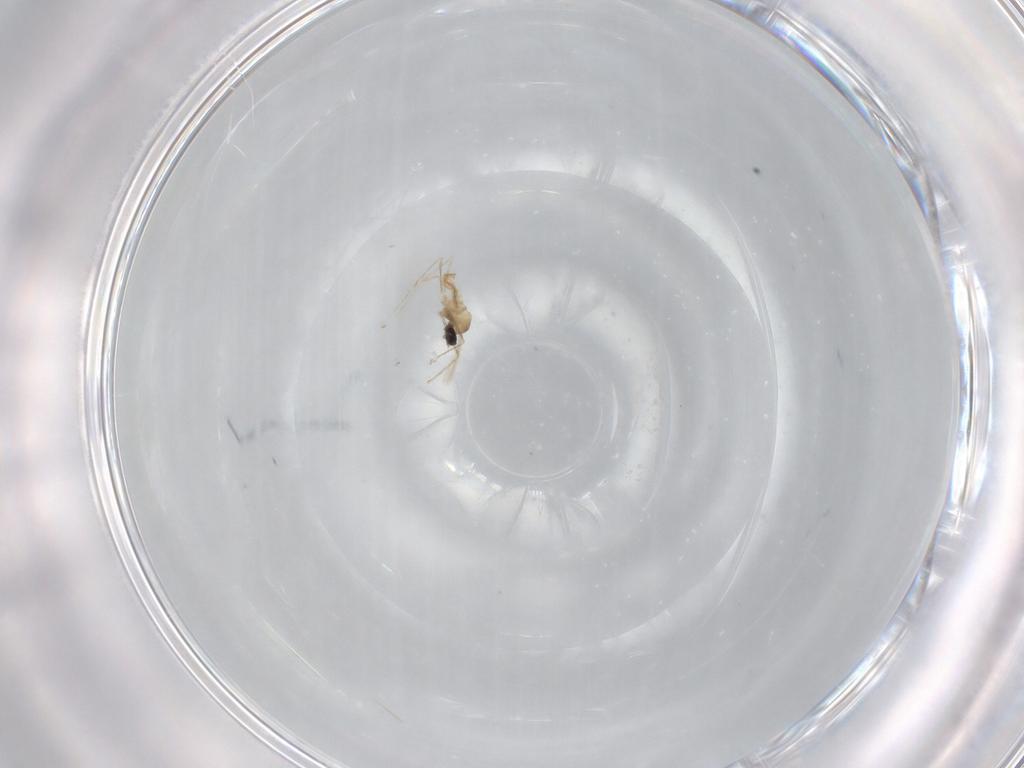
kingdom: Animalia
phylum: Arthropoda
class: Insecta
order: Diptera
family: Cecidomyiidae
